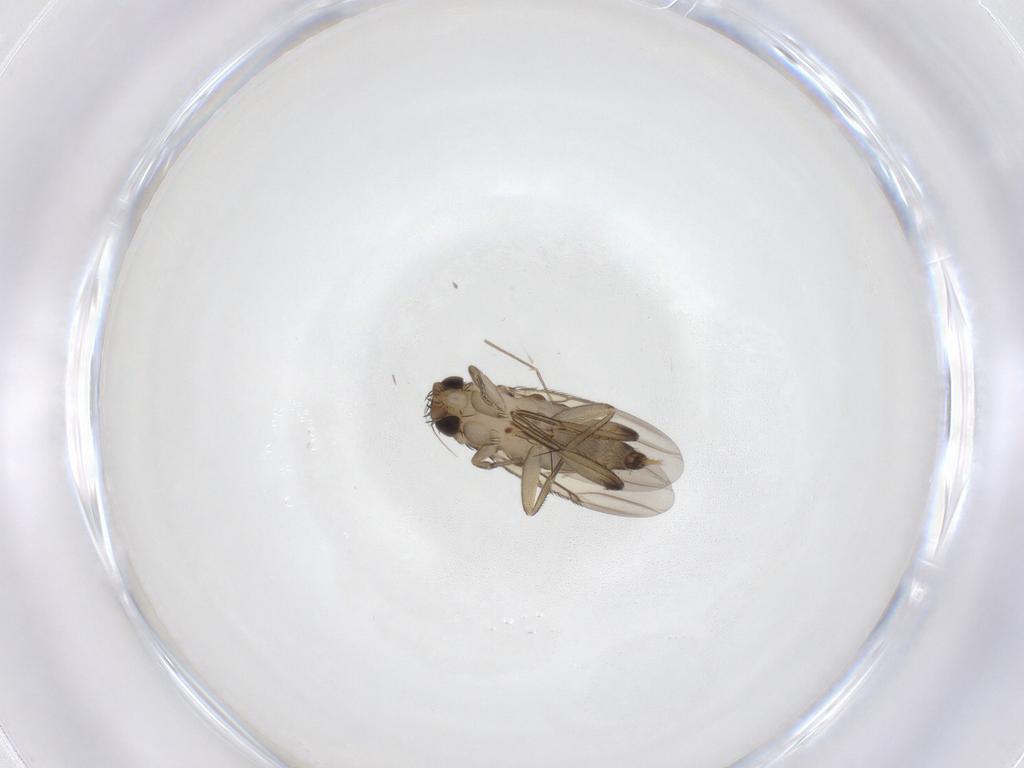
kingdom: Animalia
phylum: Arthropoda
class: Insecta
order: Diptera
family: Phoridae
